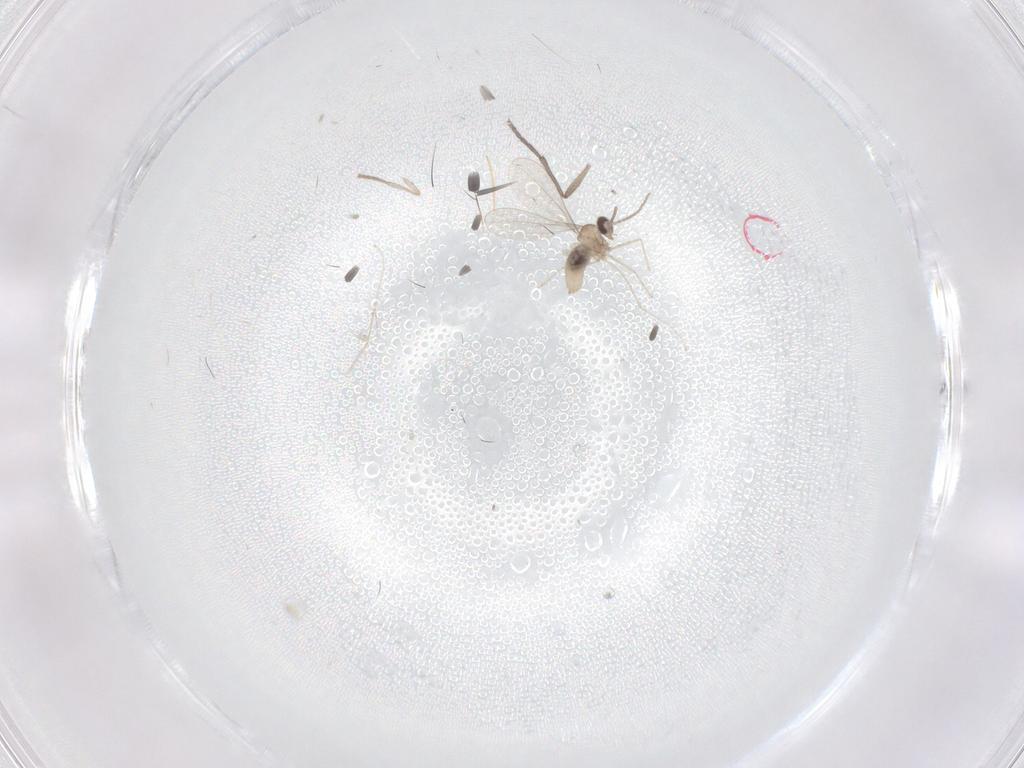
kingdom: Animalia
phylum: Arthropoda
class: Insecta
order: Diptera
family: Sciaridae
